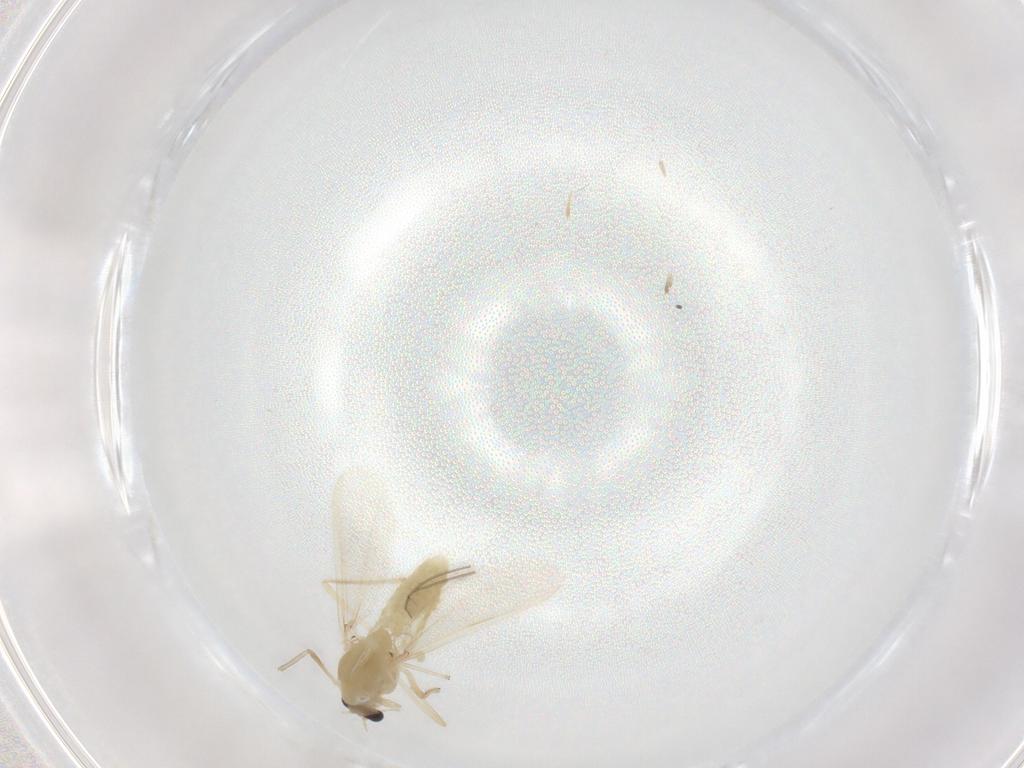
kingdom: Animalia
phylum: Arthropoda
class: Insecta
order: Diptera
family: Chironomidae
